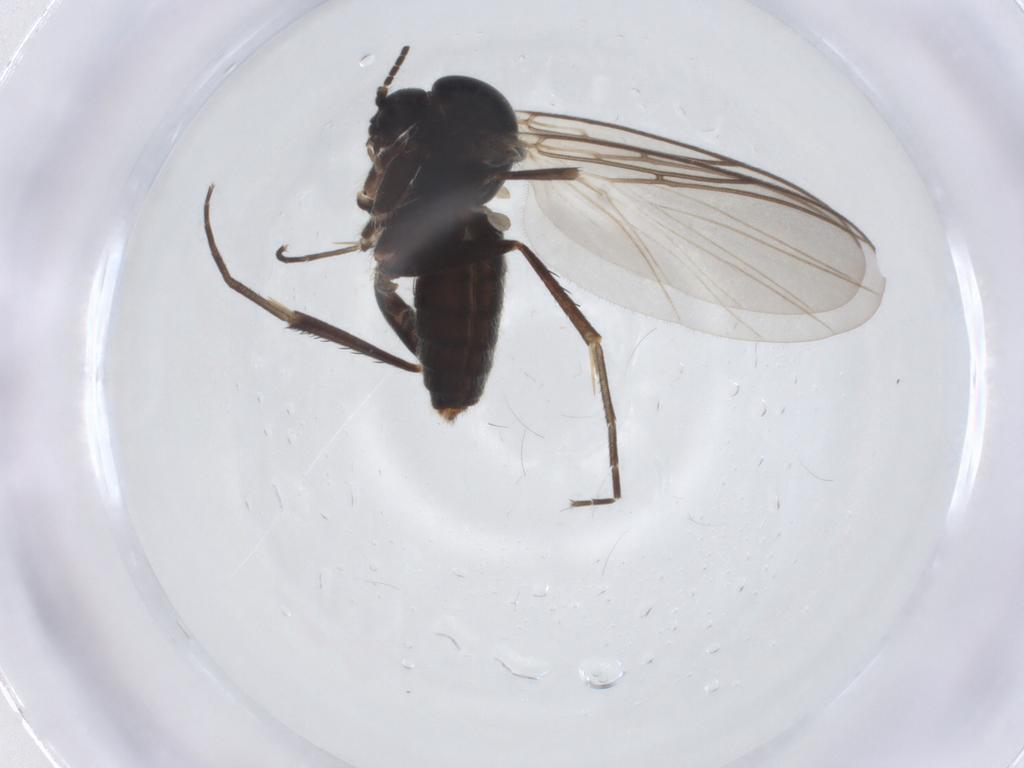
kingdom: Animalia
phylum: Arthropoda
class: Insecta
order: Diptera
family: Mycetophilidae
